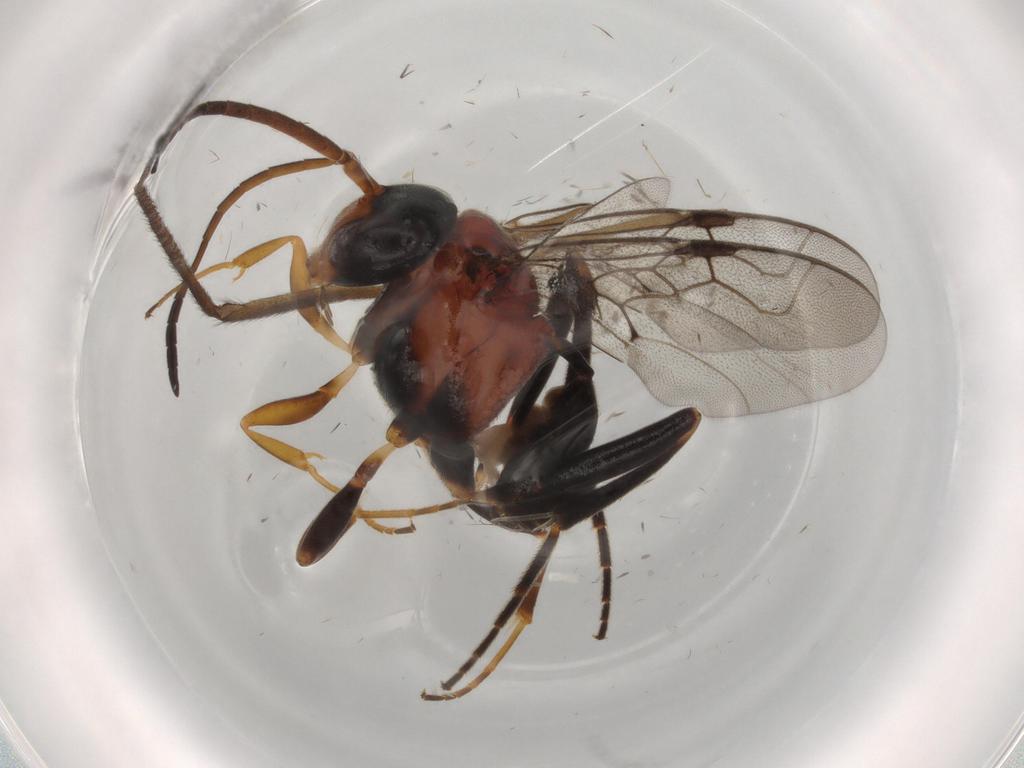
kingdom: Animalia
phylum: Arthropoda
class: Insecta
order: Hymenoptera
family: Evaniidae
